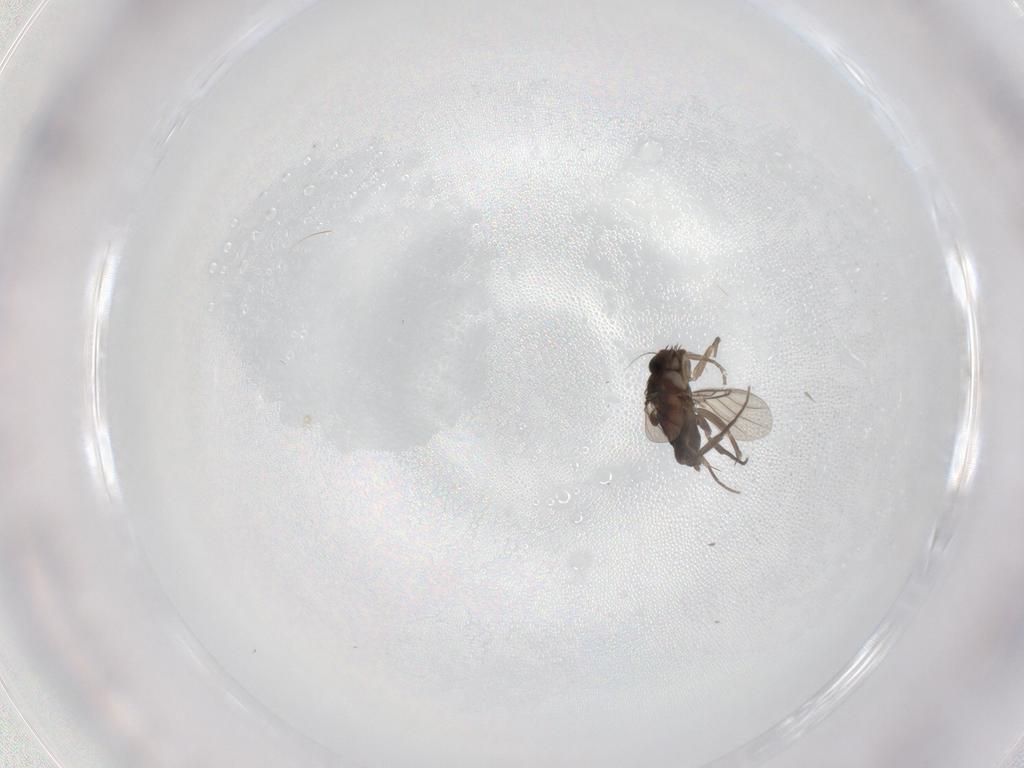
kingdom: Animalia
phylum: Arthropoda
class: Insecta
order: Diptera
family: Phoridae
